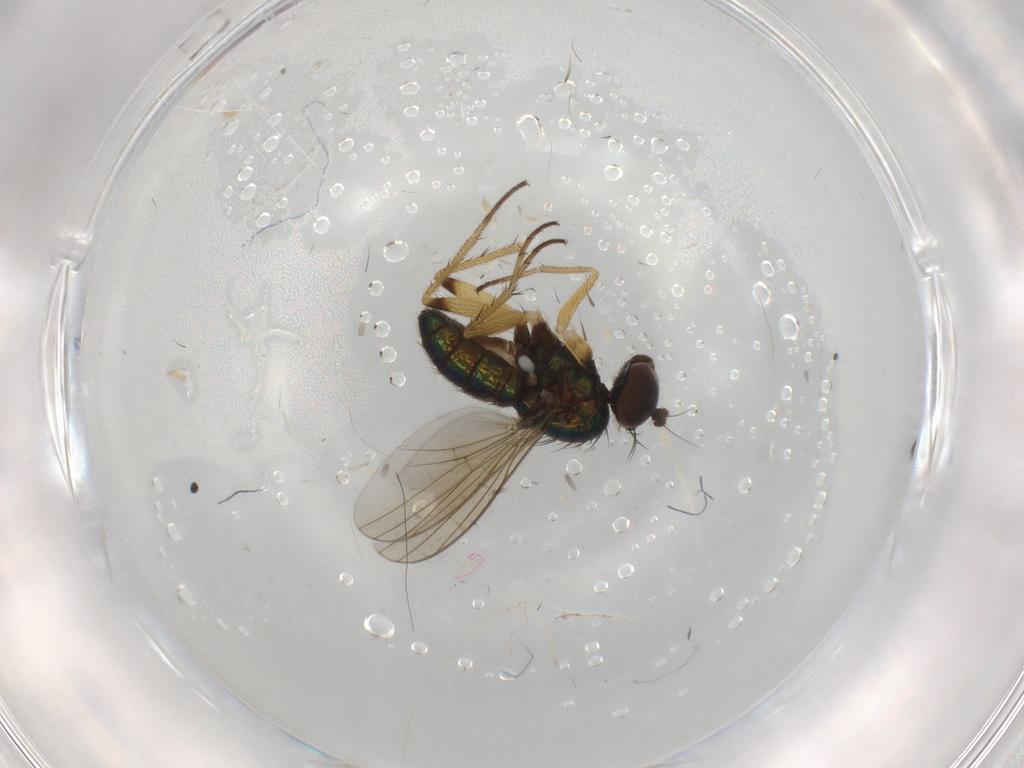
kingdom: Animalia
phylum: Arthropoda
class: Insecta
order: Diptera
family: Dolichopodidae
